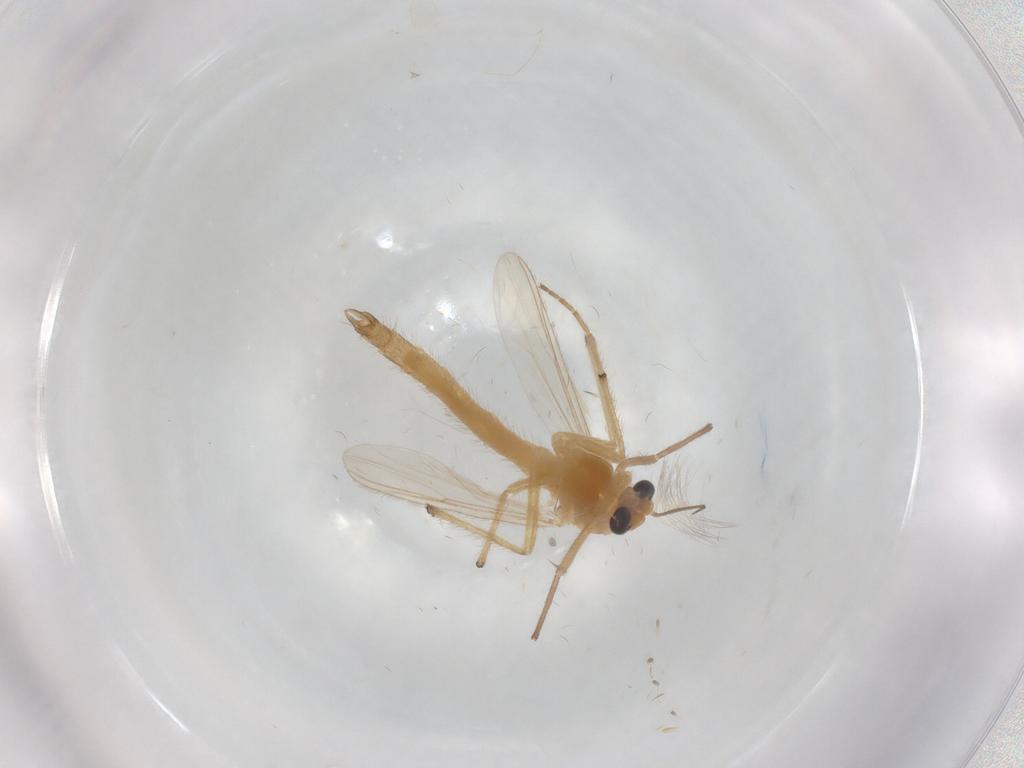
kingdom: Animalia
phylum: Arthropoda
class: Insecta
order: Diptera
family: Chironomidae
